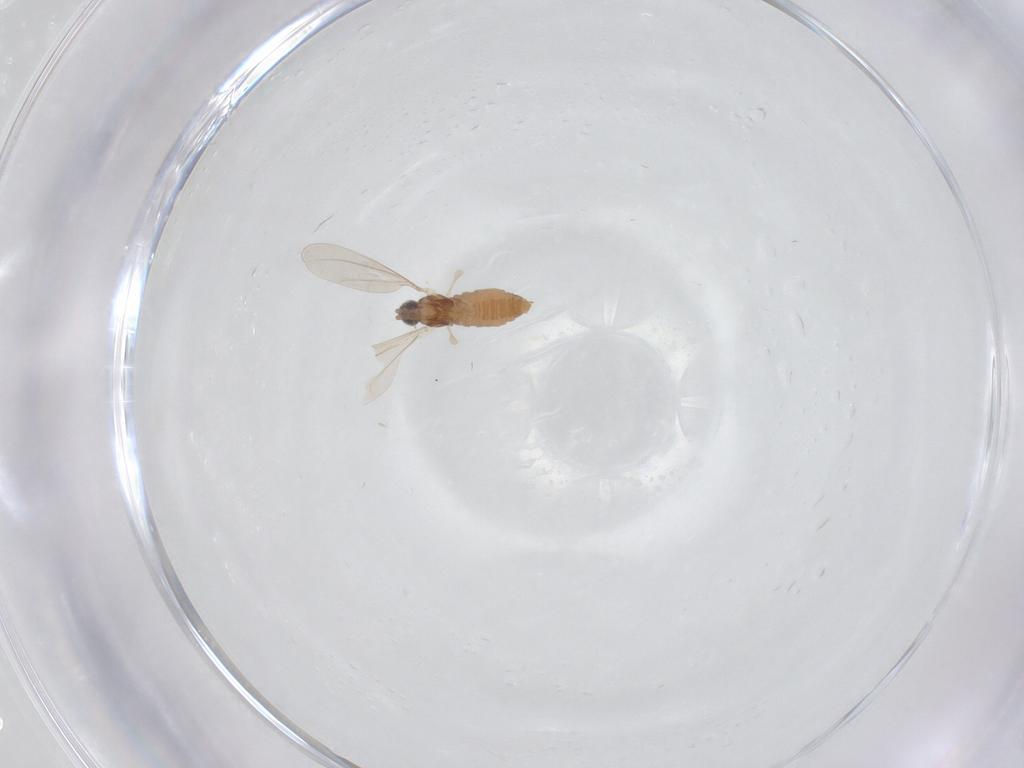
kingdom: Animalia
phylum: Arthropoda
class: Insecta
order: Diptera
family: Cecidomyiidae
